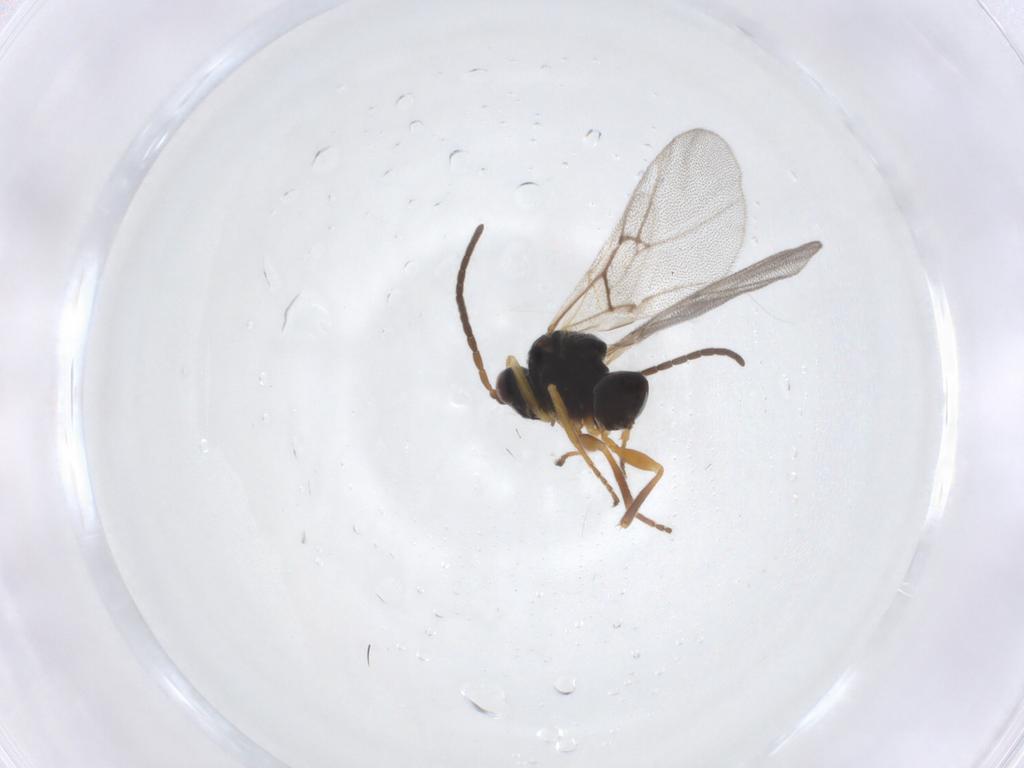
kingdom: Animalia
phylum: Arthropoda
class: Insecta
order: Hymenoptera
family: Cynipidae
